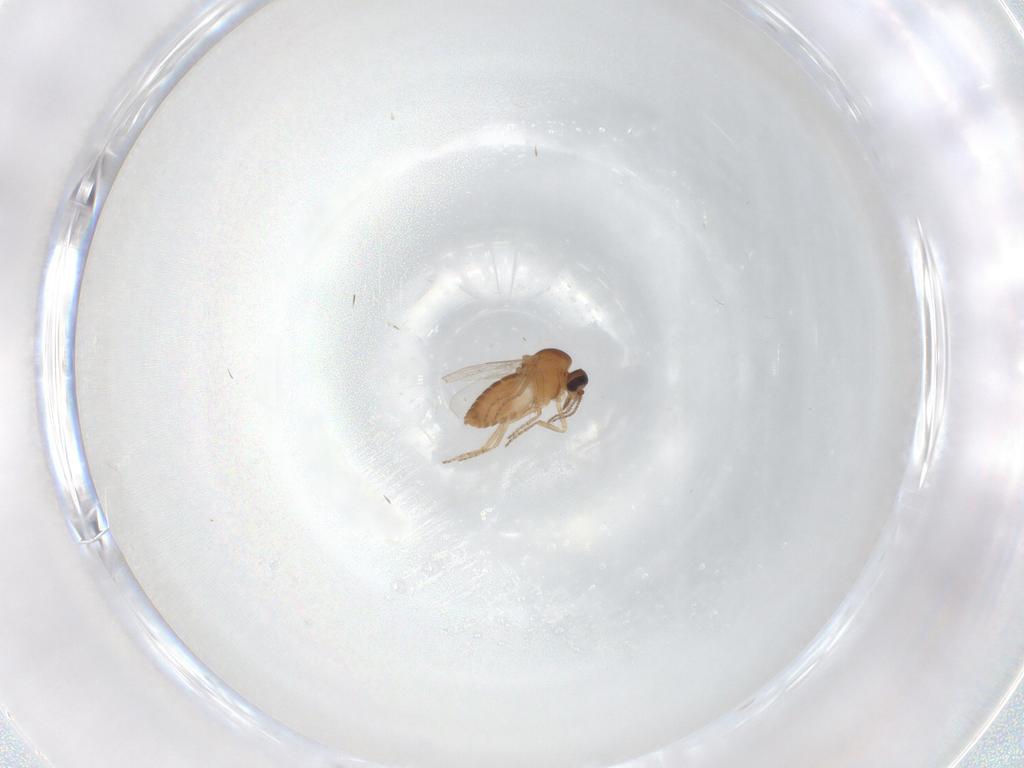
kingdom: Animalia
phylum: Arthropoda
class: Insecta
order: Diptera
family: Ceratopogonidae
